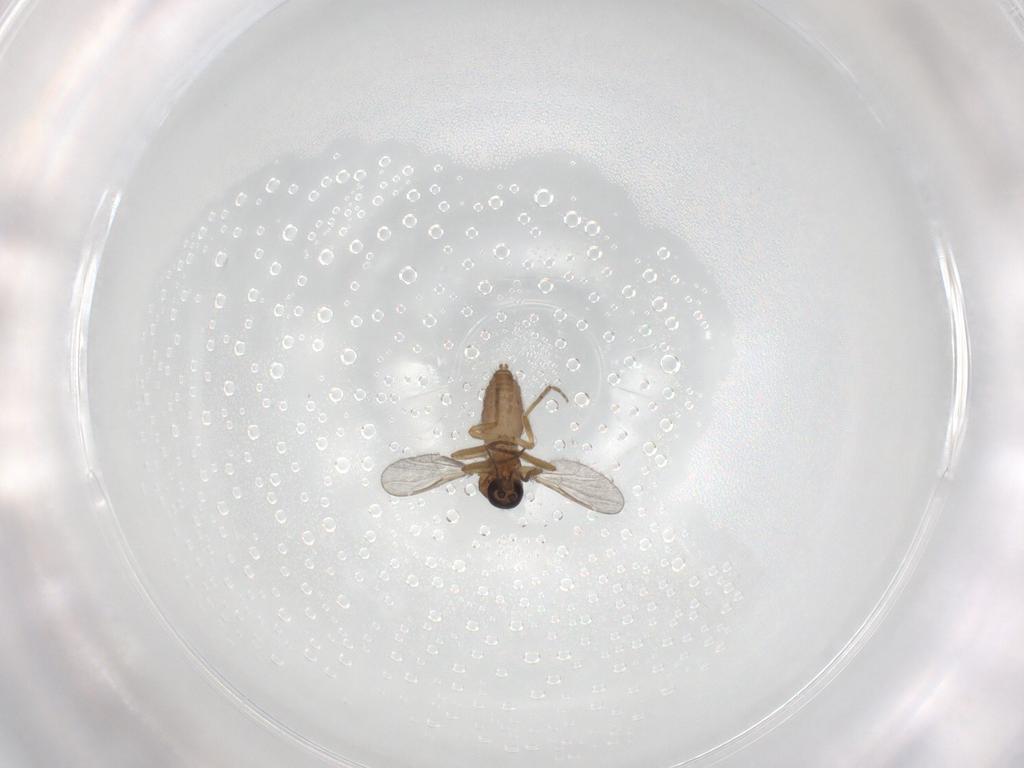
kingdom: Animalia
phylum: Arthropoda
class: Insecta
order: Diptera
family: Ceratopogonidae
